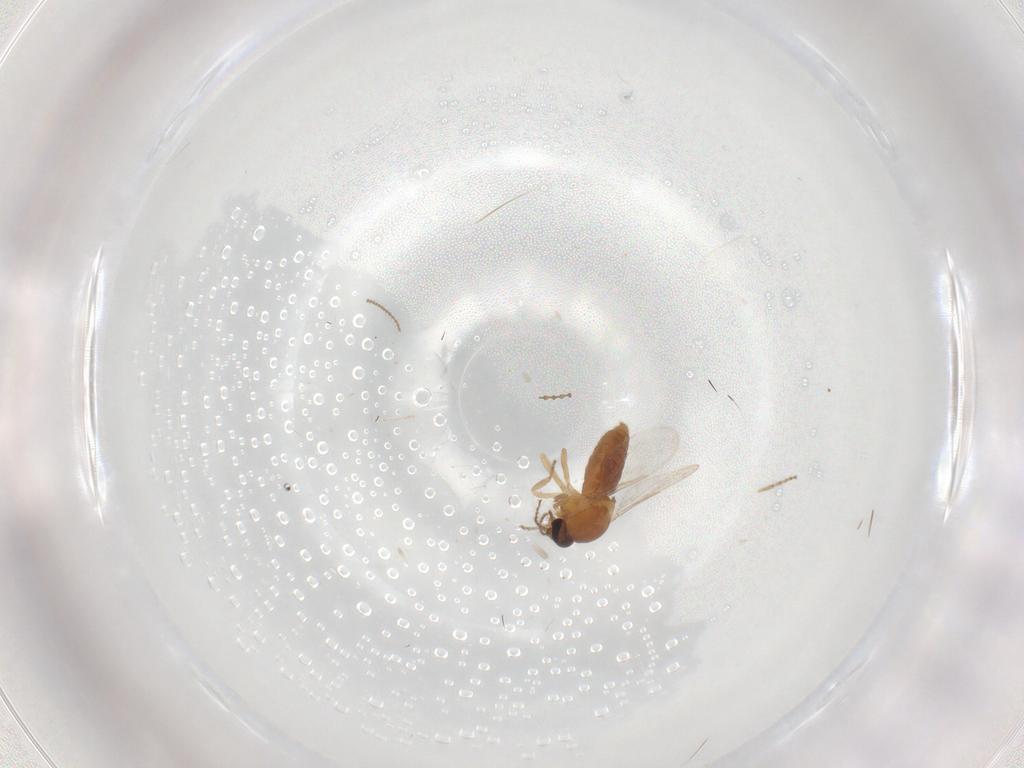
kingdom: Animalia
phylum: Arthropoda
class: Insecta
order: Diptera
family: Ceratopogonidae
